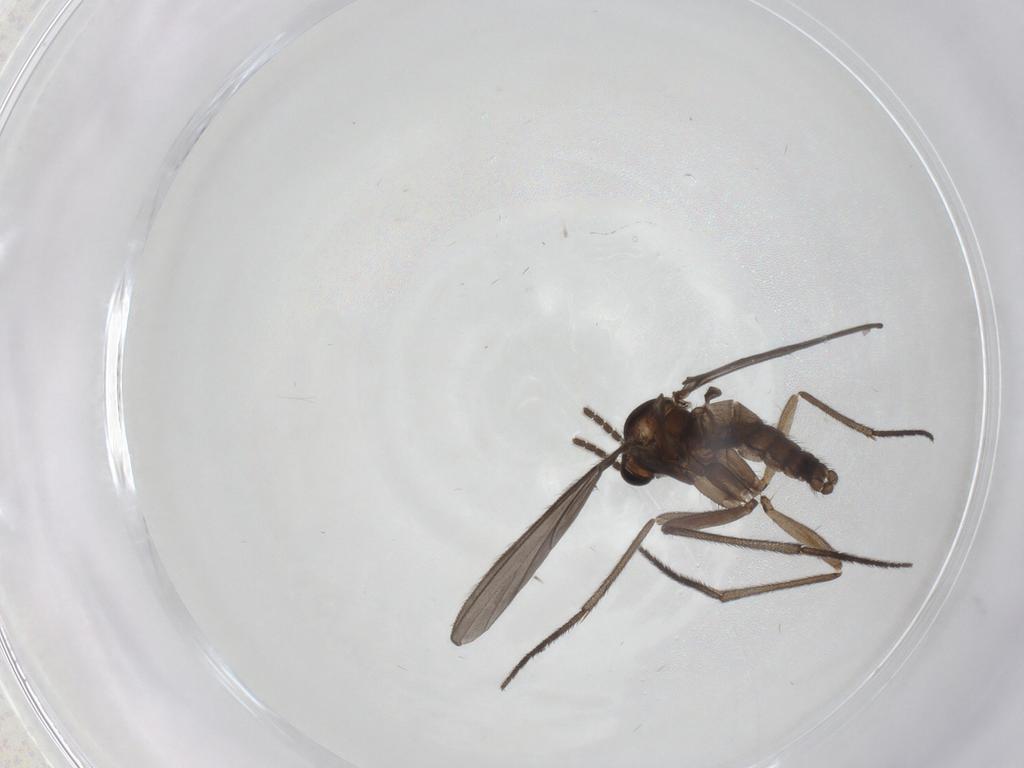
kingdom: Animalia
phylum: Arthropoda
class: Insecta
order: Diptera
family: Sciaridae
